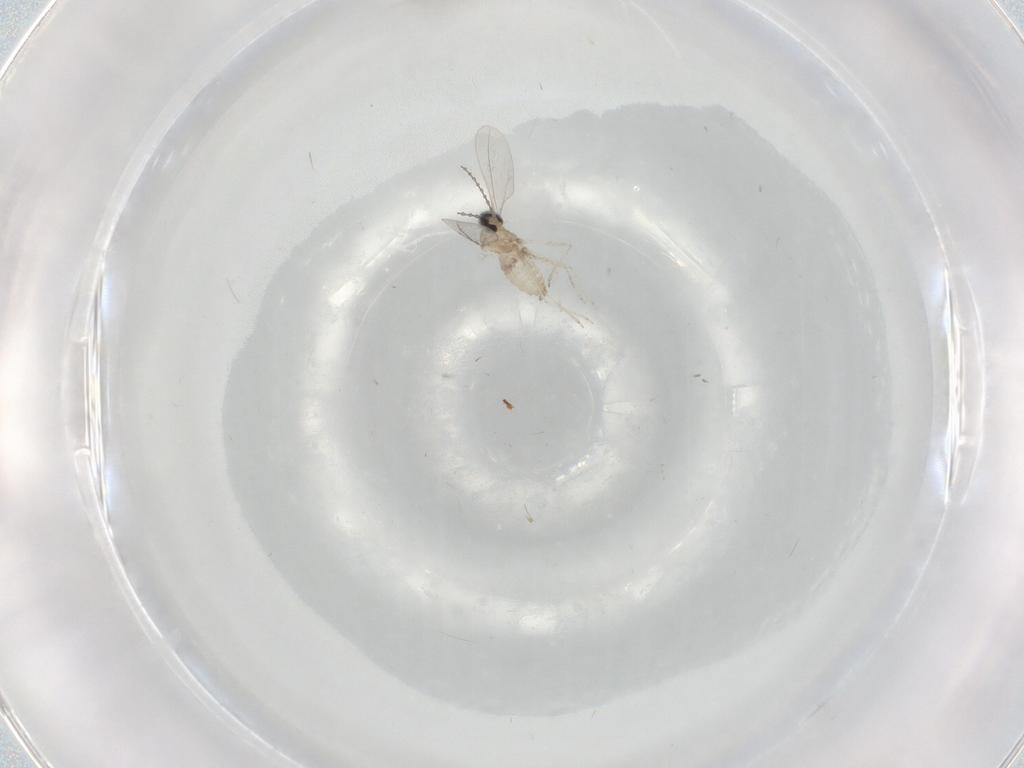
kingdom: Animalia
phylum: Arthropoda
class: Insecta
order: Diptera
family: Cecidomyiidae
